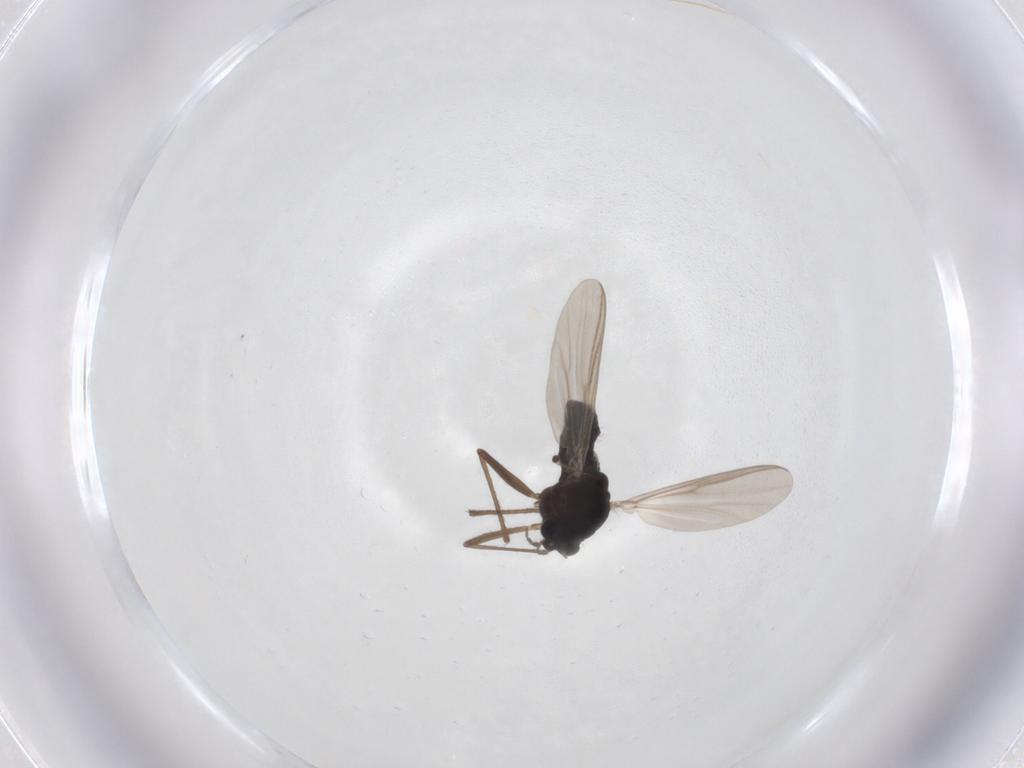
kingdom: Animalia
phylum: Arthropoda
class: Insecta
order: Diptera
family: Chironomidae
